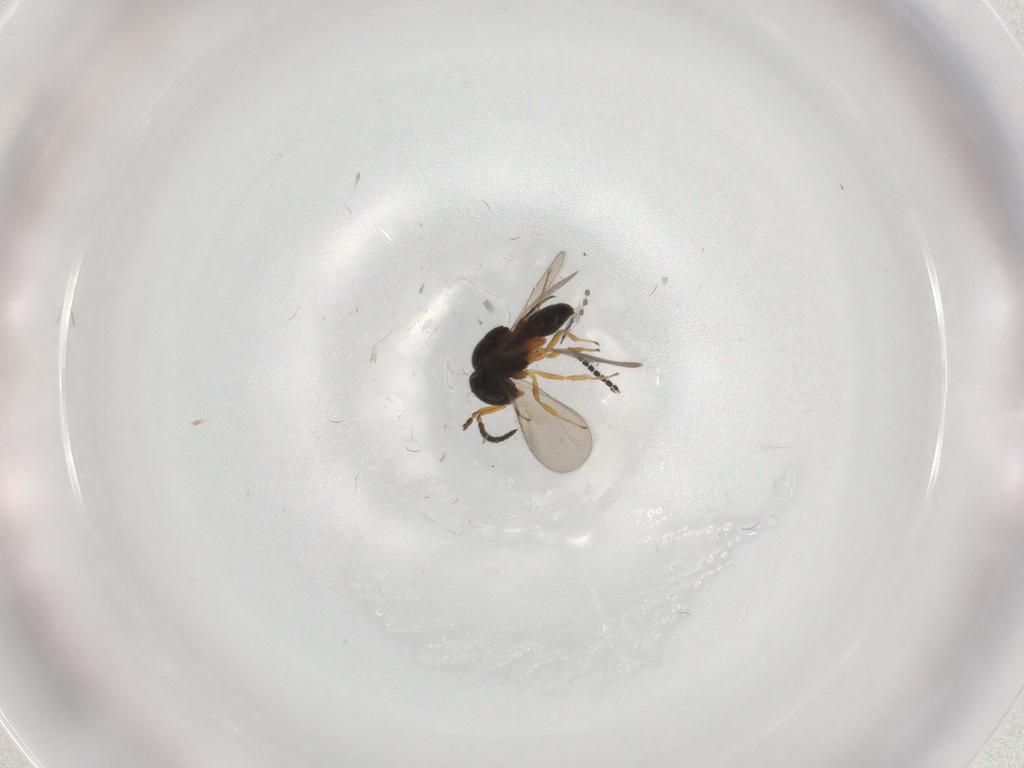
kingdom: Animalia
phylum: Arthropoda
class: Insecta
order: Hymenoptera
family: Scelionidae
